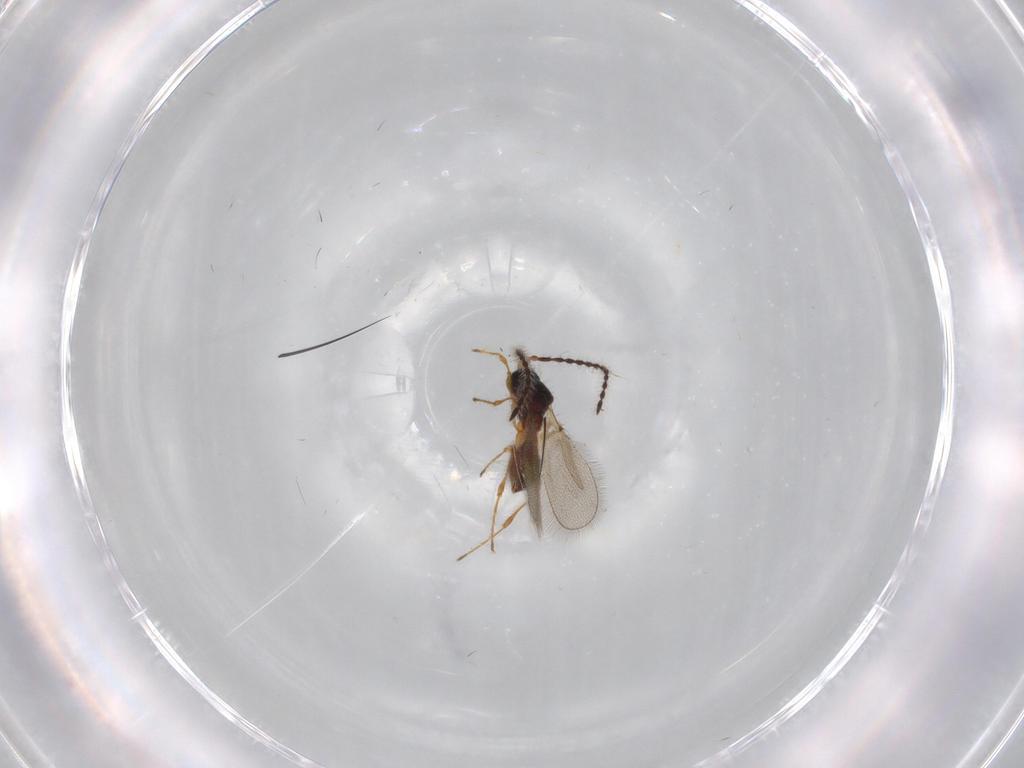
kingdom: Animalia
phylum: Arthropoda
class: Insecta
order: Hymenoptera
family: Diapriidae
